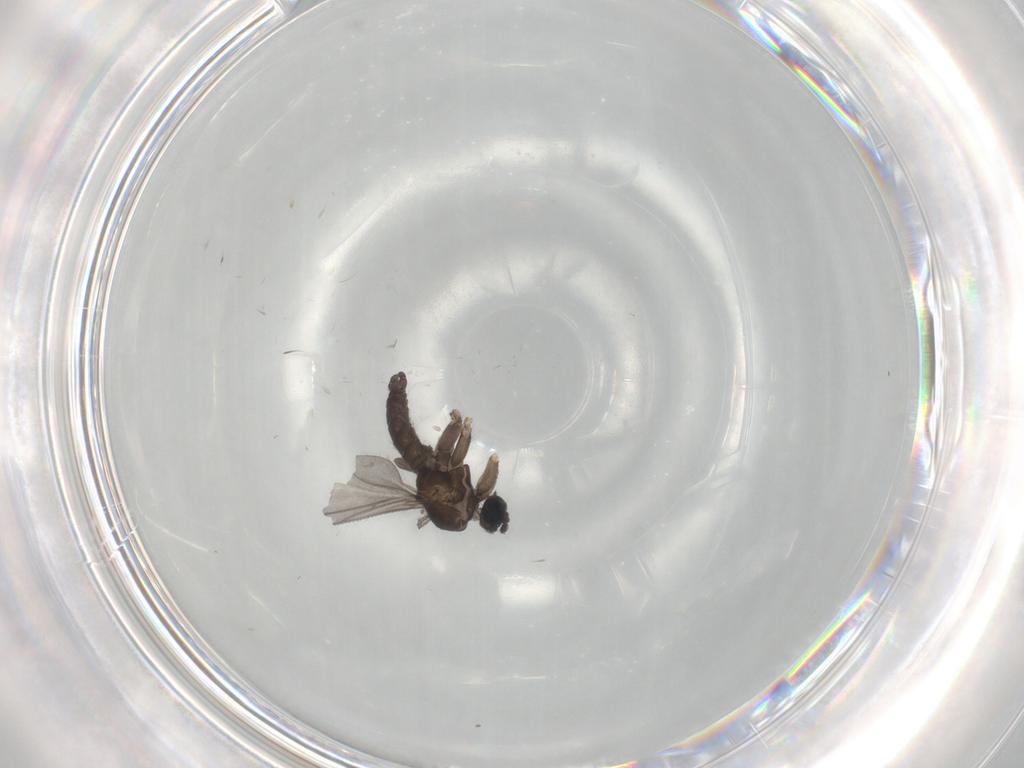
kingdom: Animalia
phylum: Arthropoda
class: Insecta
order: Diptera
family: Sciaridae
